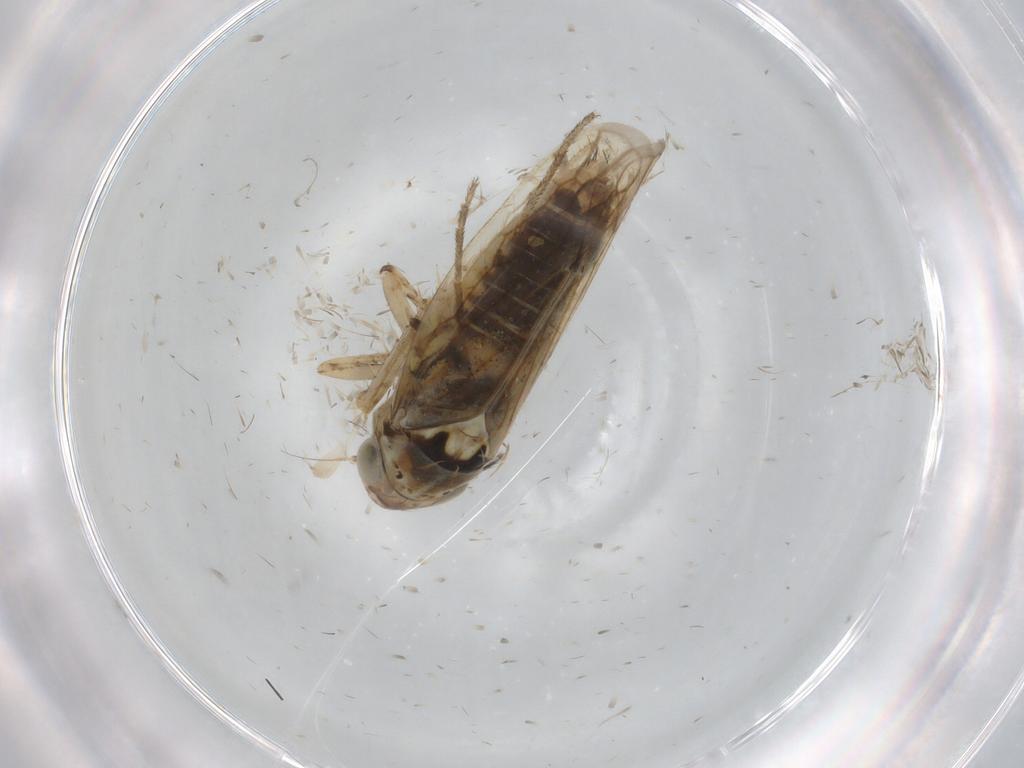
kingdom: Animalia
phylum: Arthropoda
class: Insecta
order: Hemiptera
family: Cicadellidae
